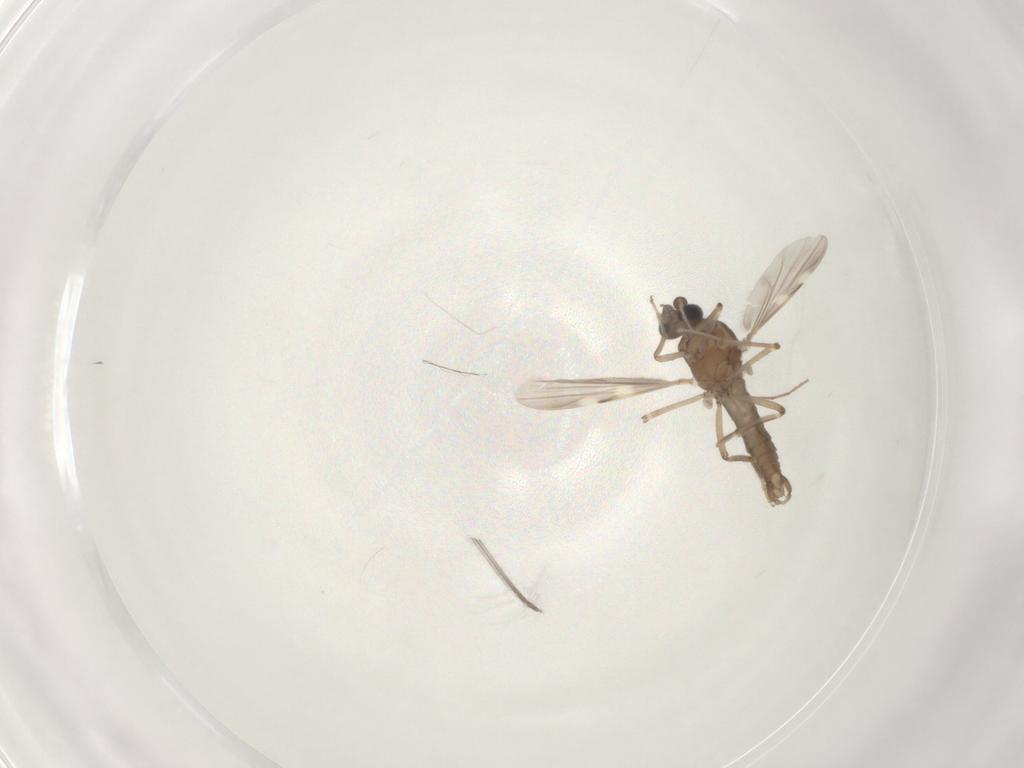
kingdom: Animalia
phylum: Arthropoda
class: Insecta
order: Diptera
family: Ceratopogonidae
